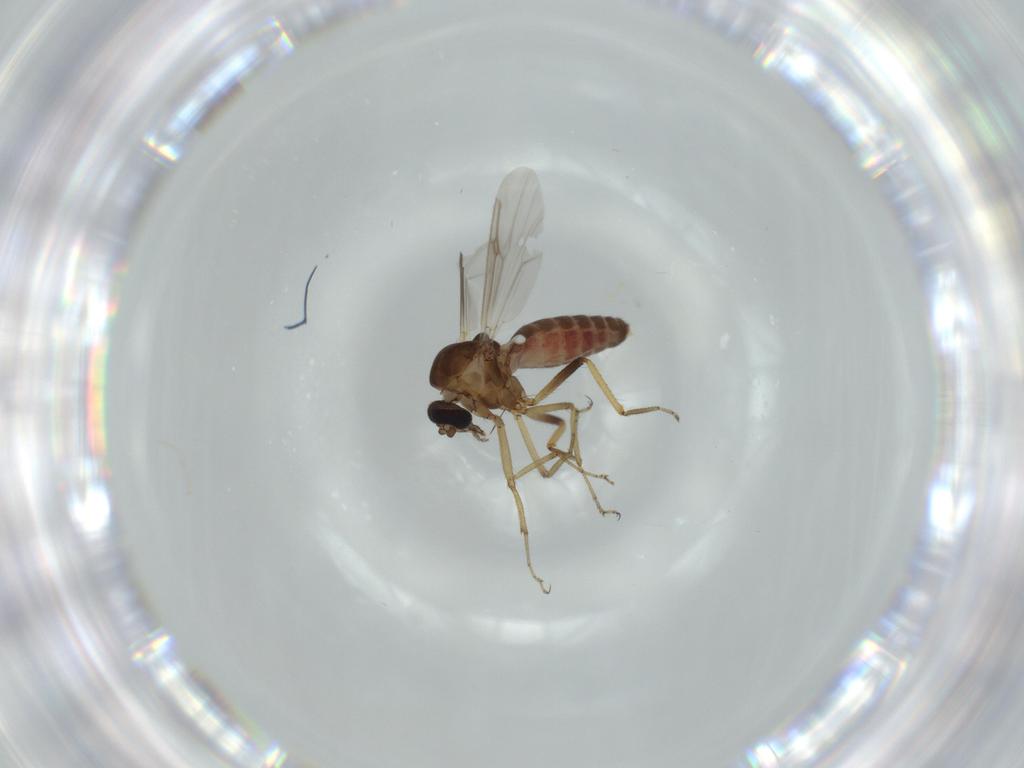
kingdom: Animalia
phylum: Arthropoda
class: Insecta
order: Diptera
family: Ceratopogonidae
